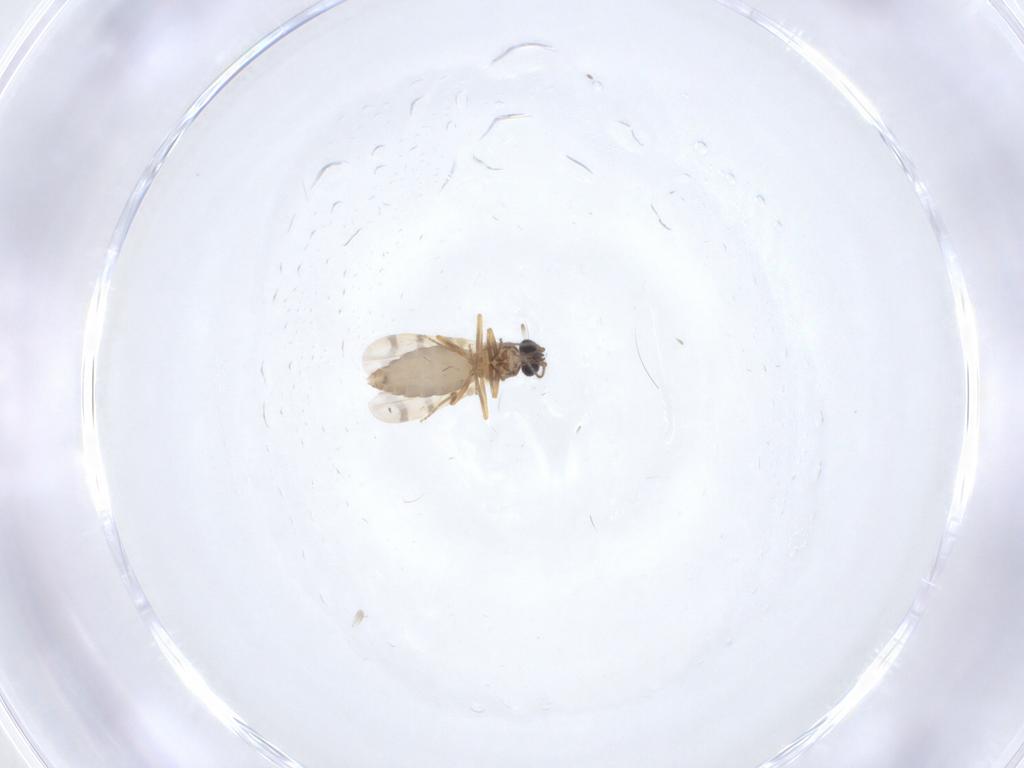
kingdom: Animalia
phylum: Arthropoda
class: Insecta
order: Diptera
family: Ceratopogonidae
